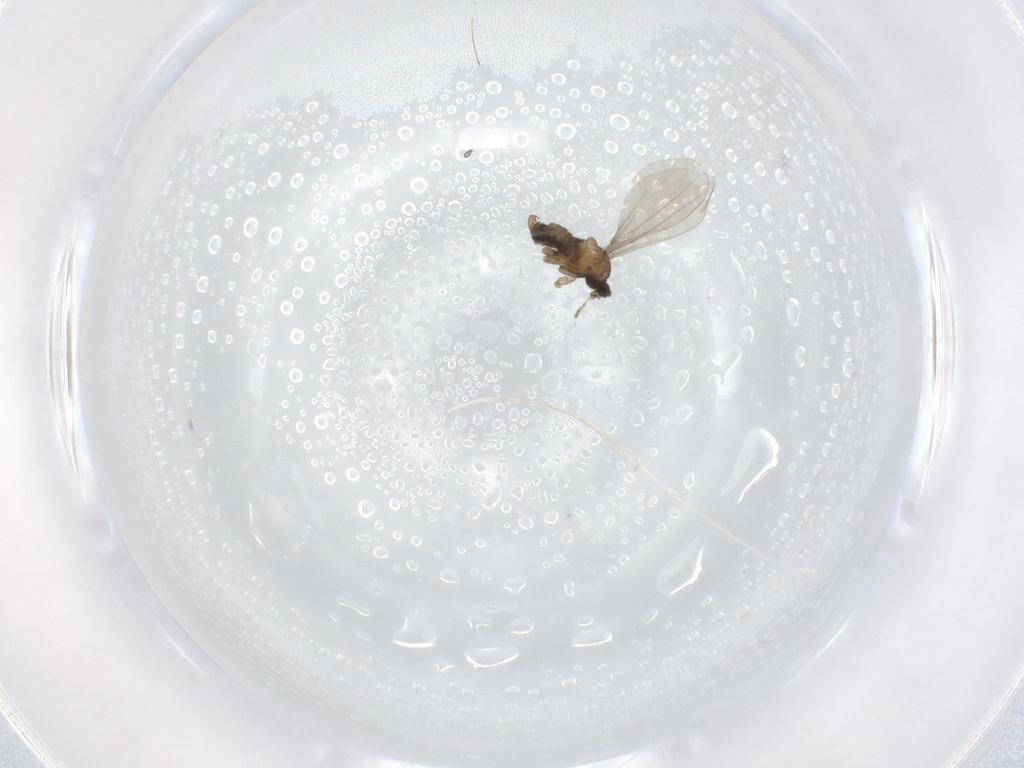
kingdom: Animalia
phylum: Arthropoda
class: Insecta
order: Diptera
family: Cecidomyiidae
